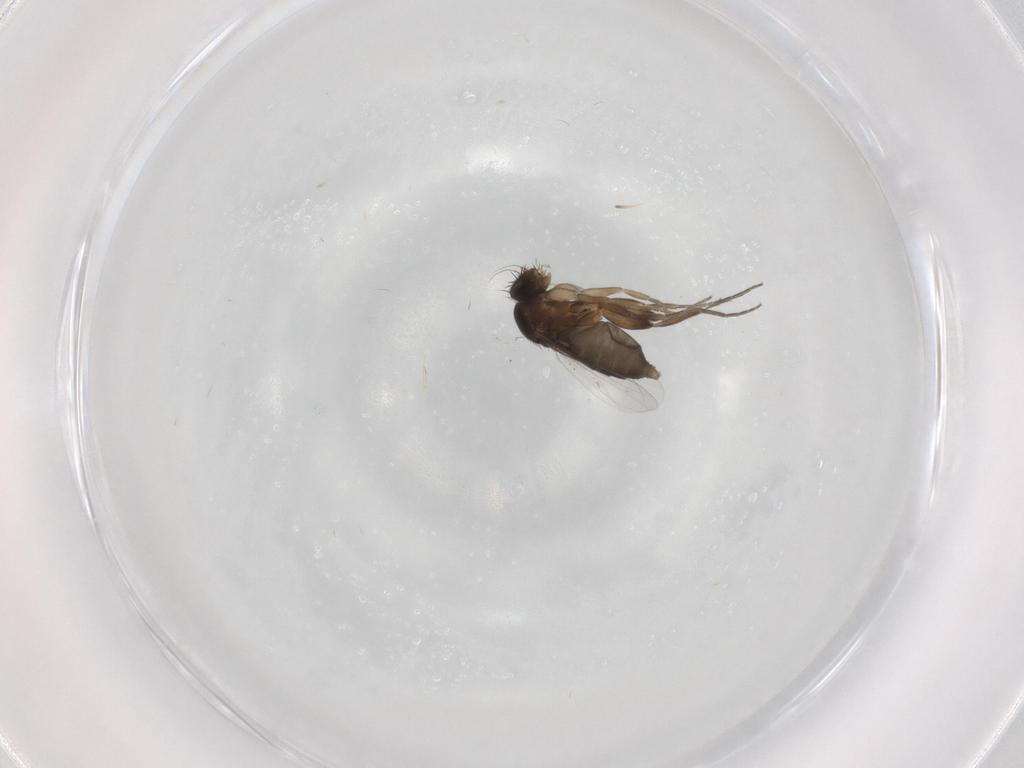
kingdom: Animalia
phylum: Arthropoda
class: Insecta
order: Diptera
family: Phoridae
